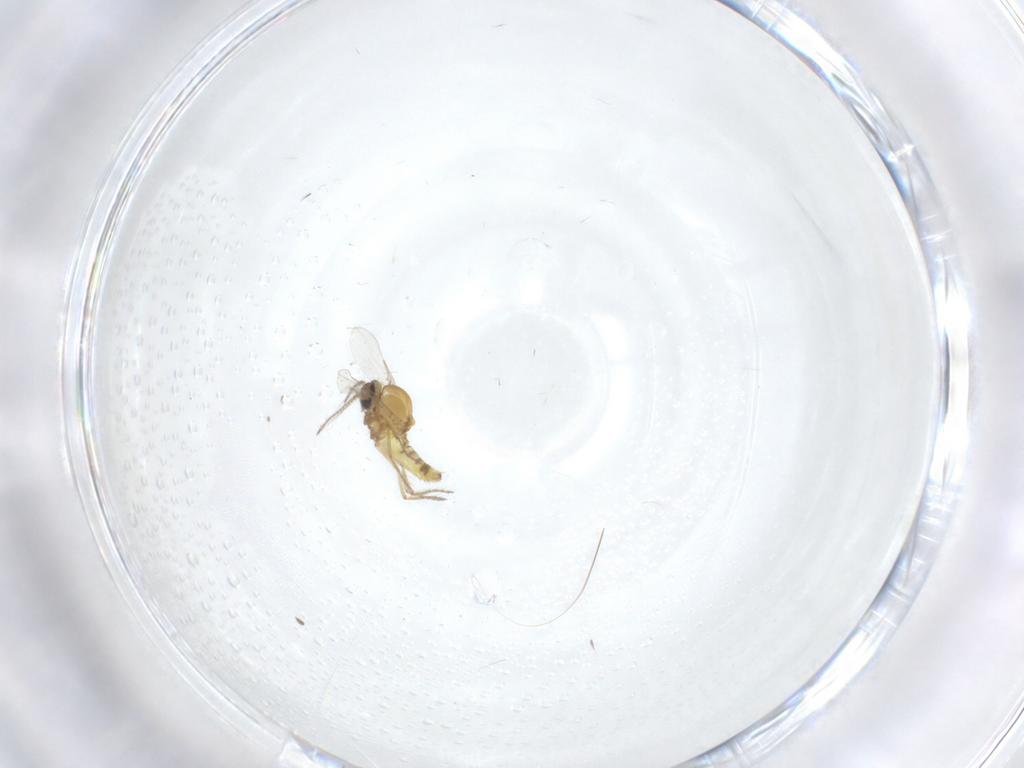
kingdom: Animalia
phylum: Arthropoda
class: Insecta
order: Diptera
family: Cecidomyiidae
